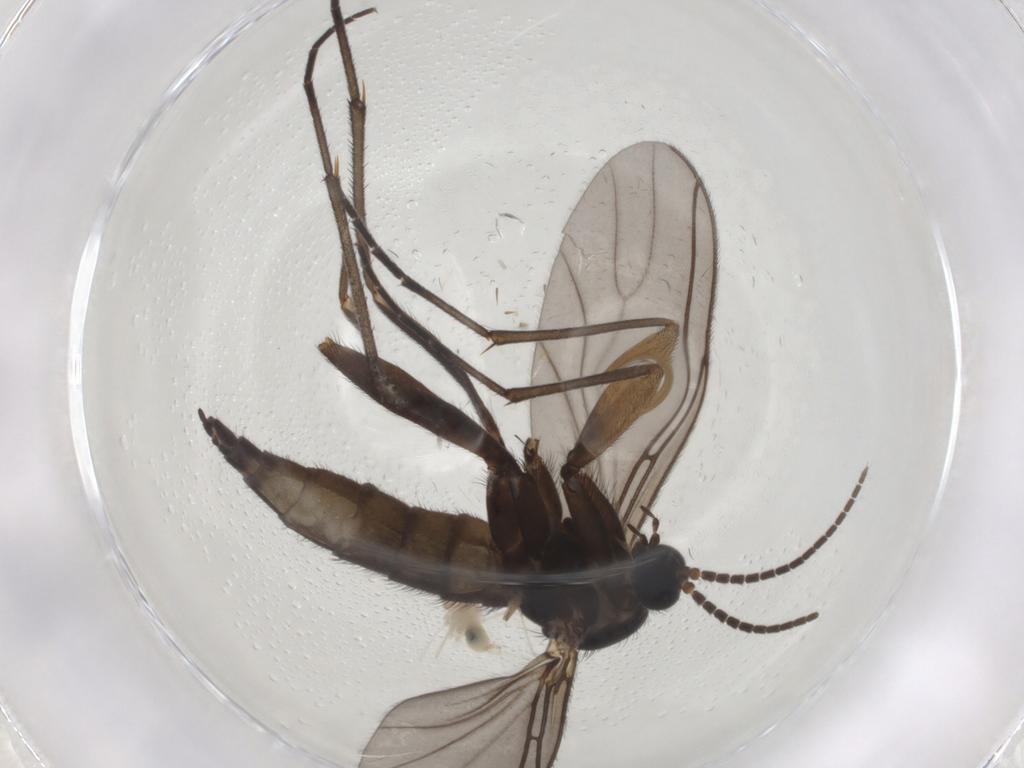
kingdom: Animalia
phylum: Arthropoda
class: Insecta
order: Diptera
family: Sciaridae
